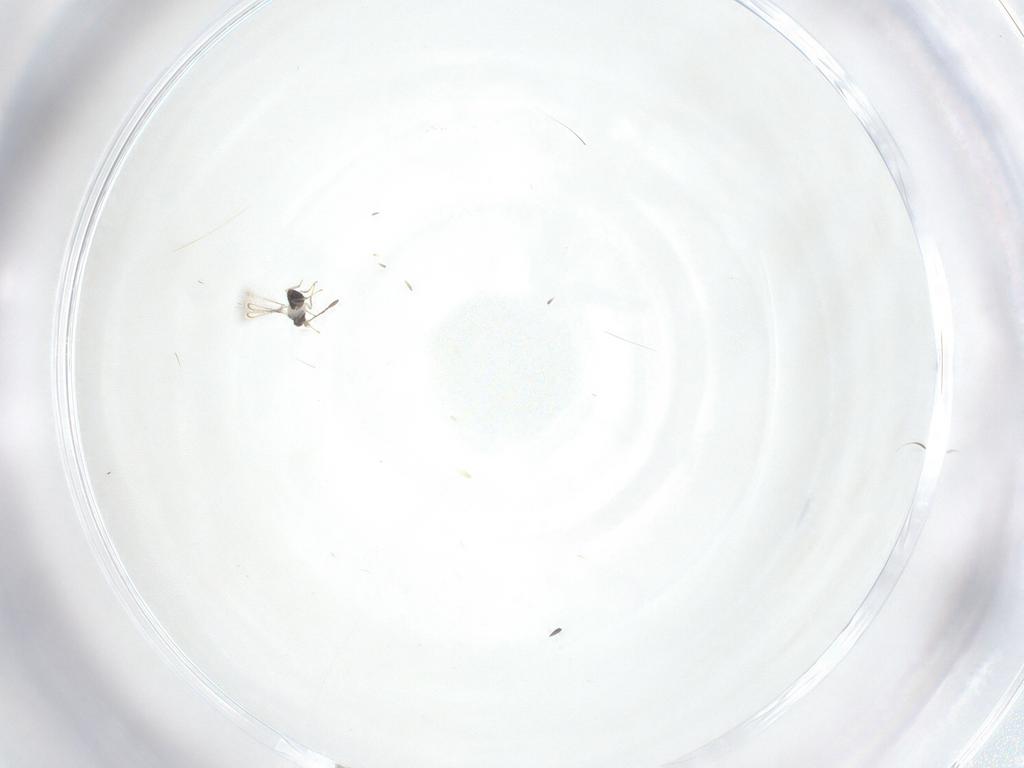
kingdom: Animalia
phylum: Arthropoda
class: Insecta
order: Hymenoptera
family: Mymaridae
